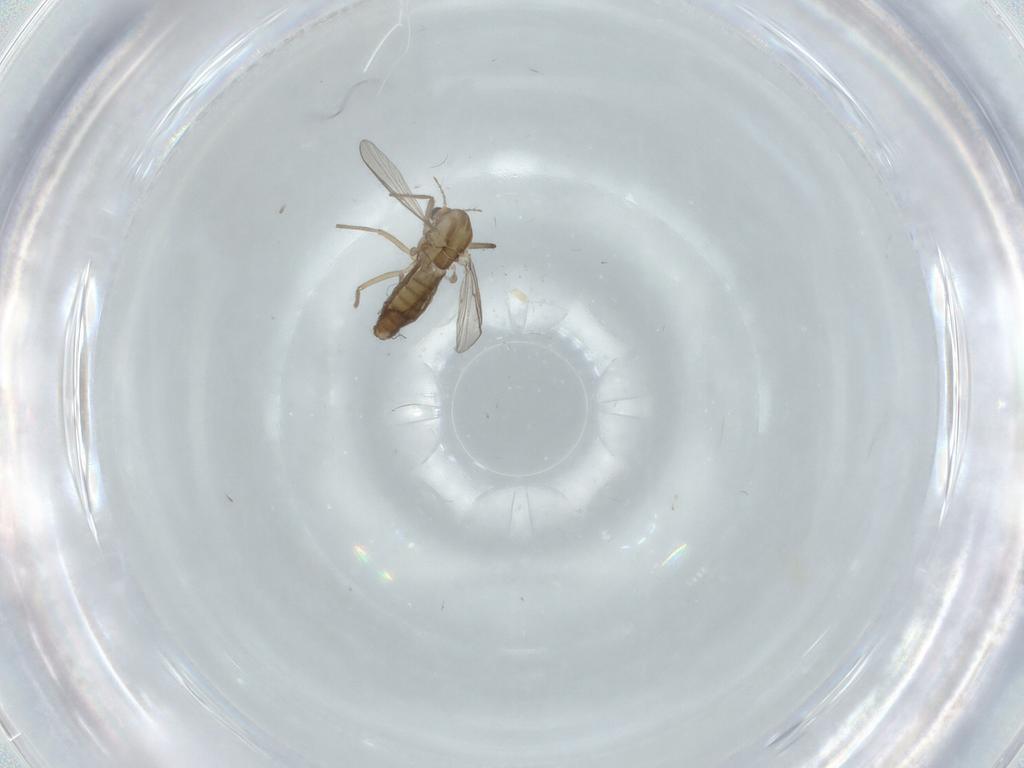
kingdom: Animalia
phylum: Arthropoda
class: Insecta
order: Diptera
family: Chironomidae
